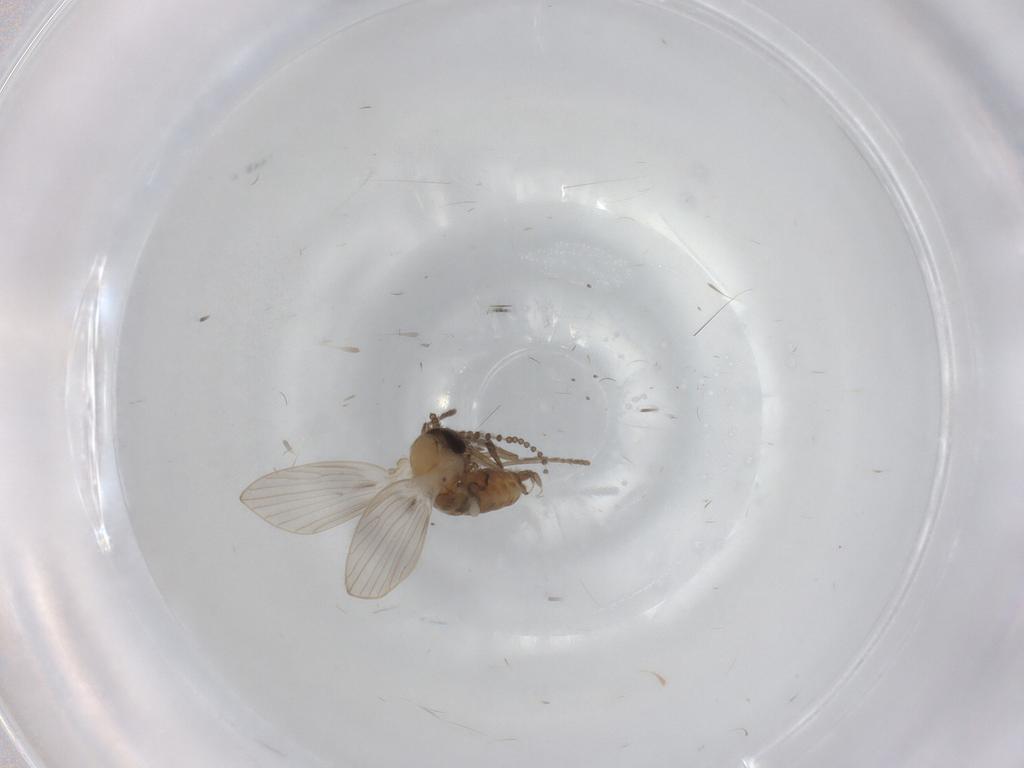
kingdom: Animalia
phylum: Arthropoda
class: Insecta
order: Diptera
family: Psychodidae
